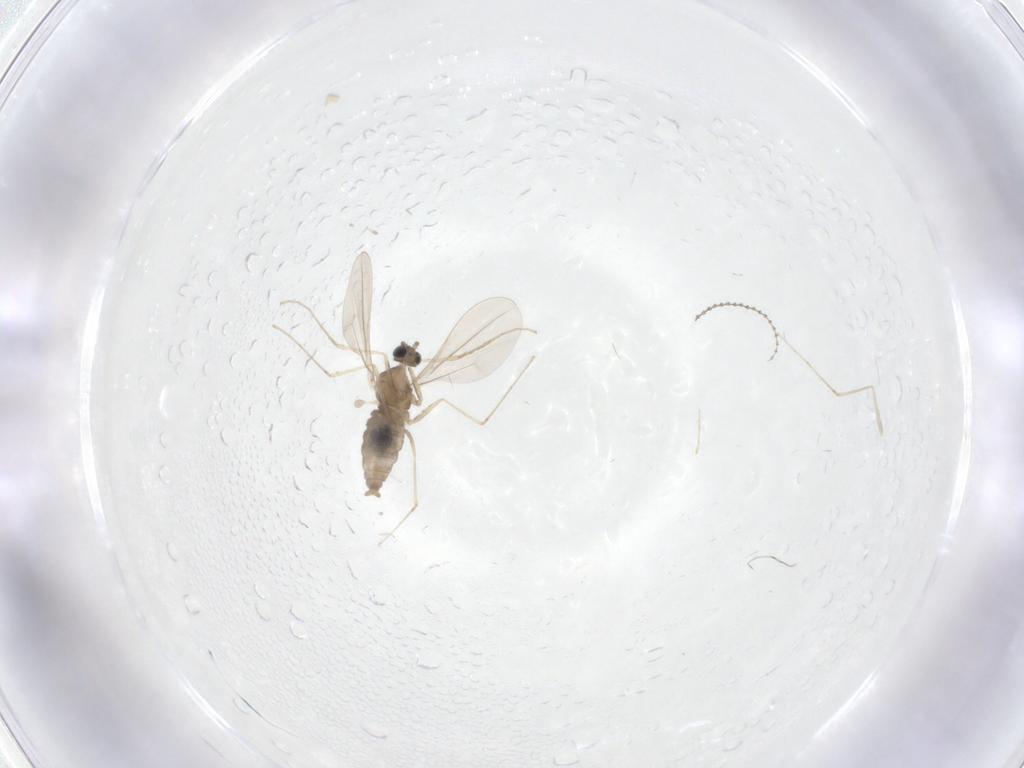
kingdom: Animalia
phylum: Arthropoda
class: Insecta
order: Diptera
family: Cecidomyiidae
